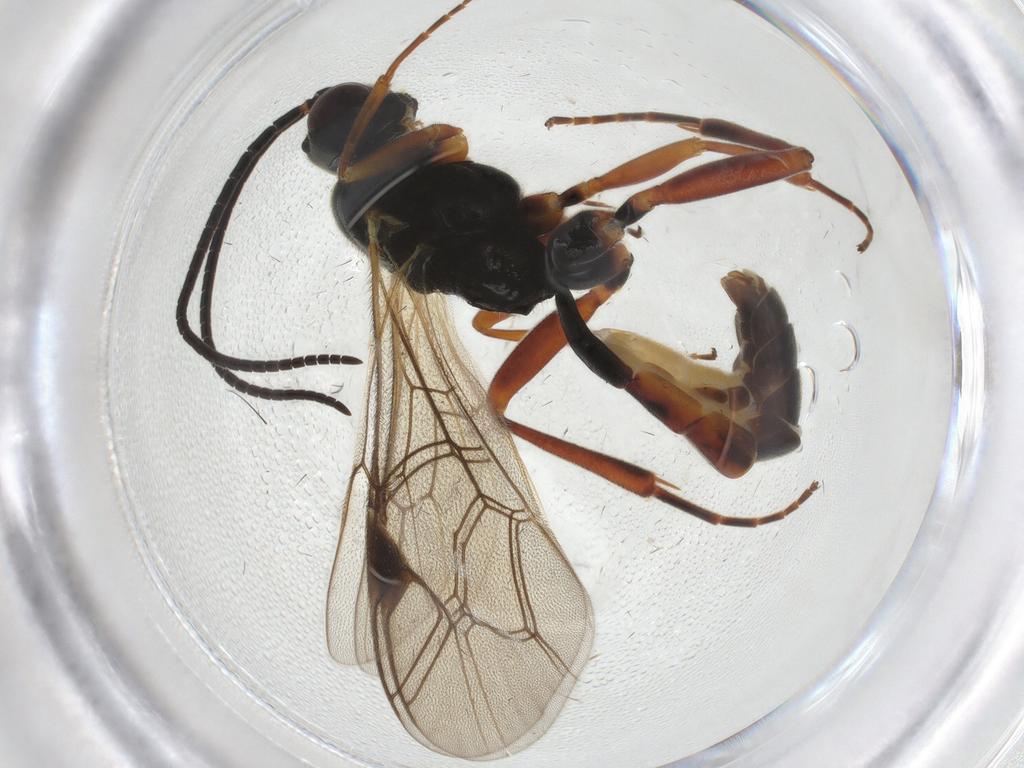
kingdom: Animalia
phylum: Arthropoda
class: Insecta
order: Hymenoptera
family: Ichneumonidae
